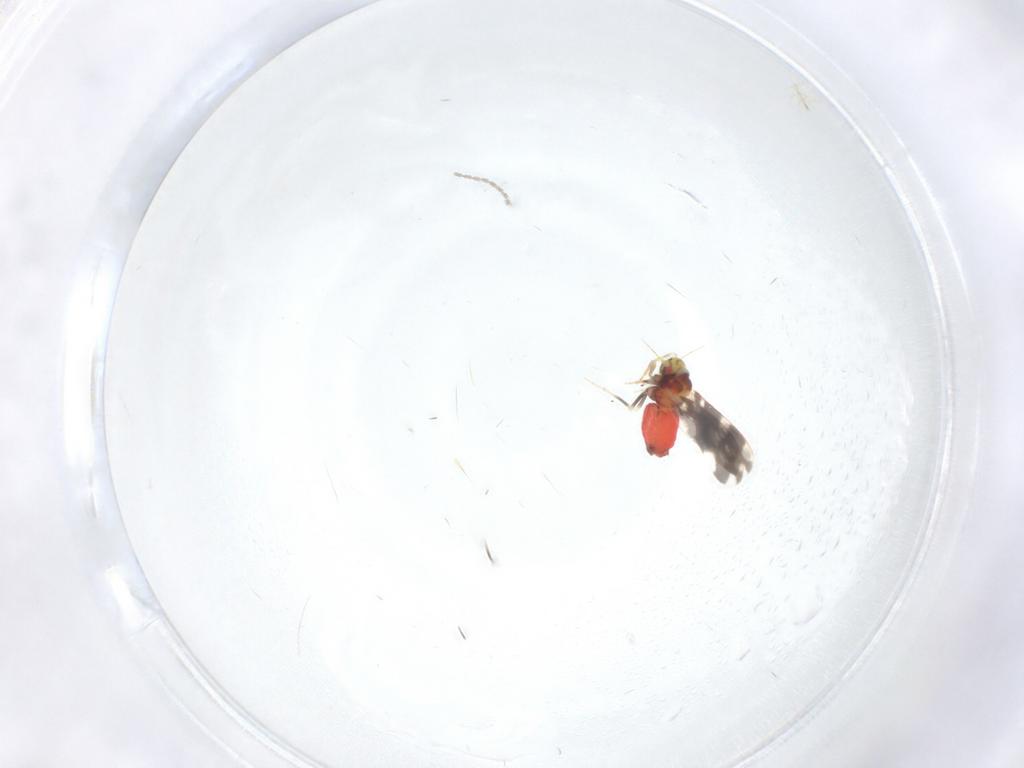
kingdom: Animalia
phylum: Arthropoda
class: Insecta
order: Hemiptera
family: Aleyrodidae
